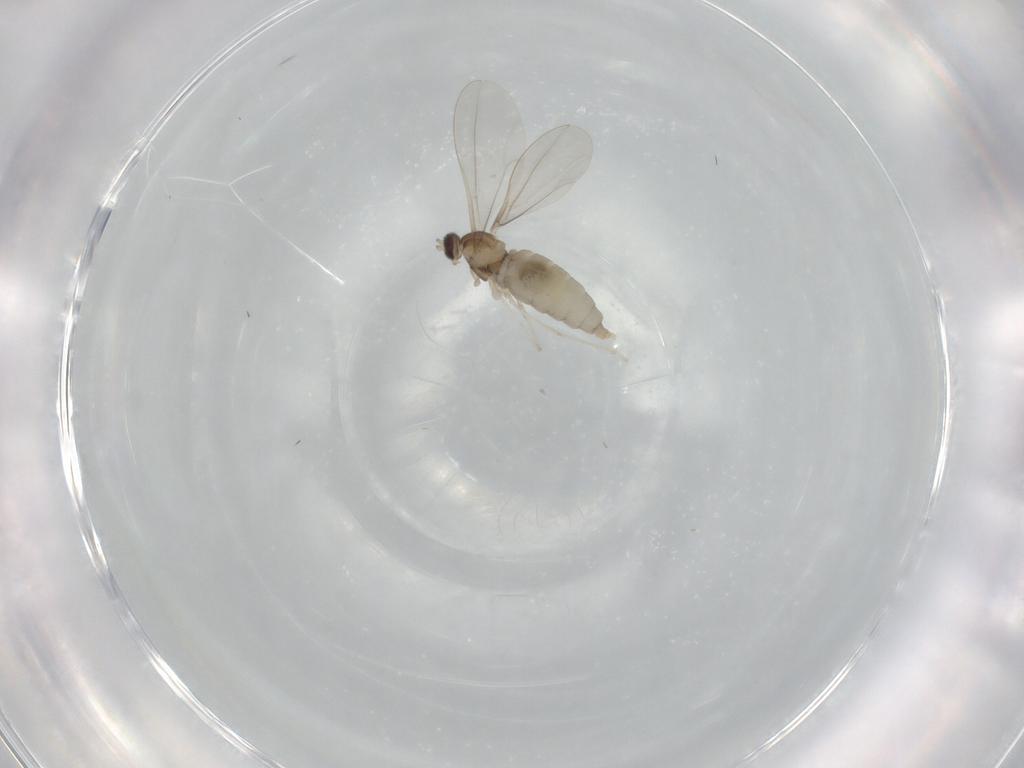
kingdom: Animalia
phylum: Arthropoda
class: Insecta
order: Diptera
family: Cecidomyiidae
